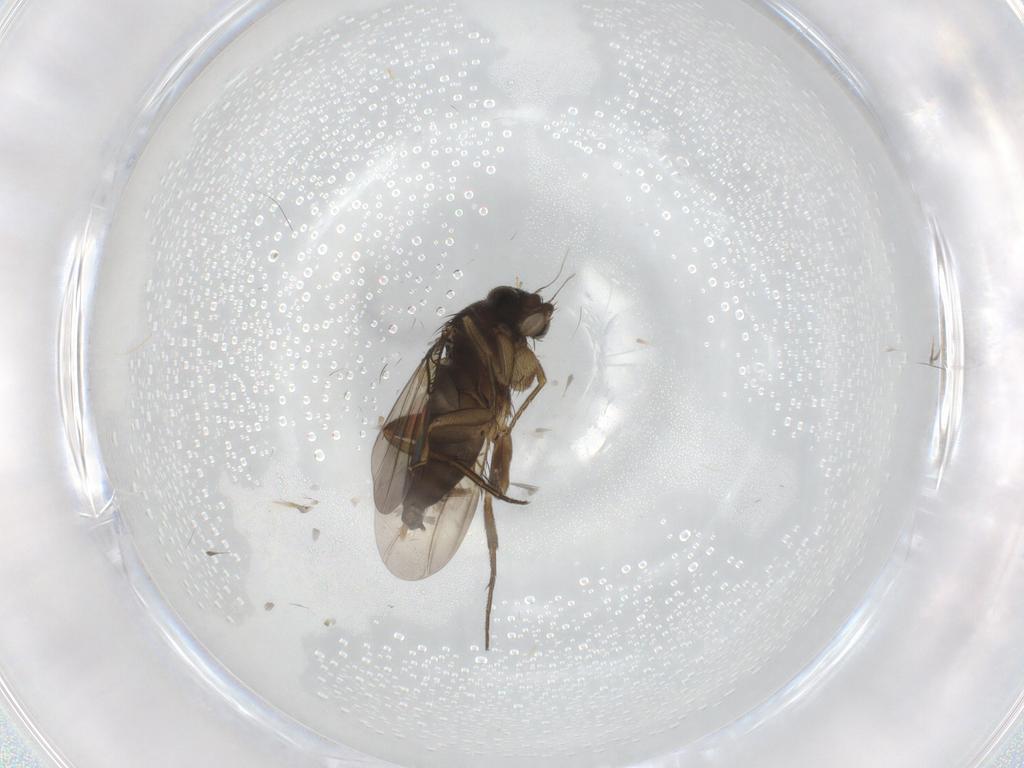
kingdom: Animalia
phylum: Arthropoda
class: Insecta
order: Diptera
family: Phoridae
